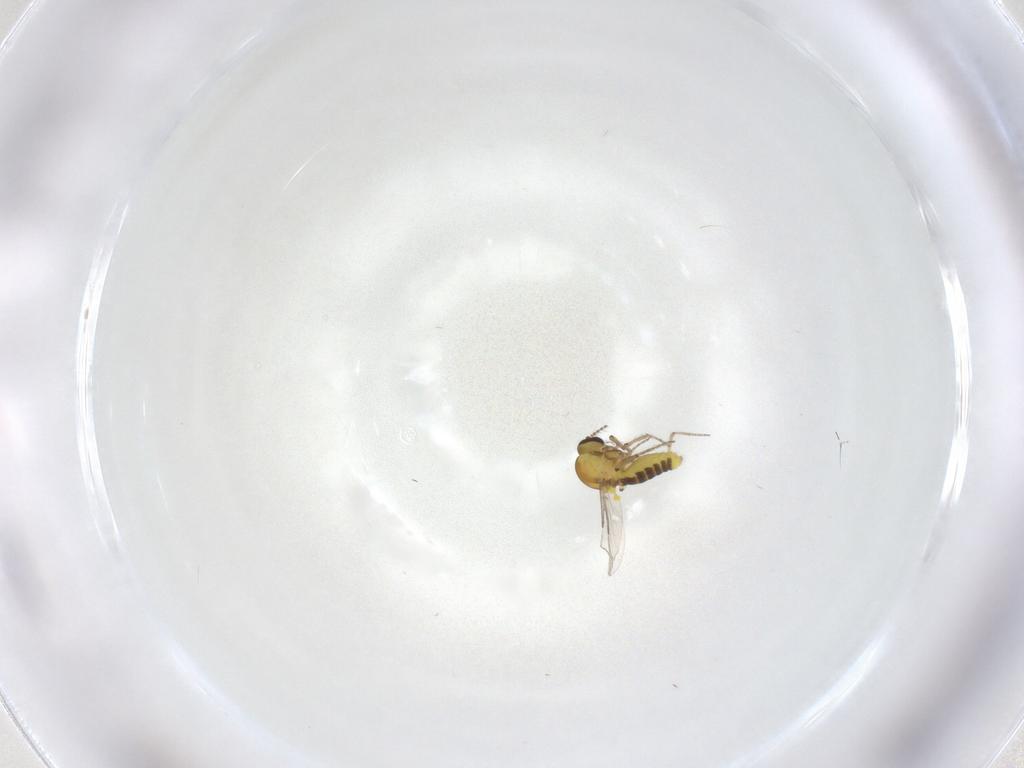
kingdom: Animalia
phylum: Arthropoda
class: Insecta
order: Diptera
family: Ceratopogonidae
